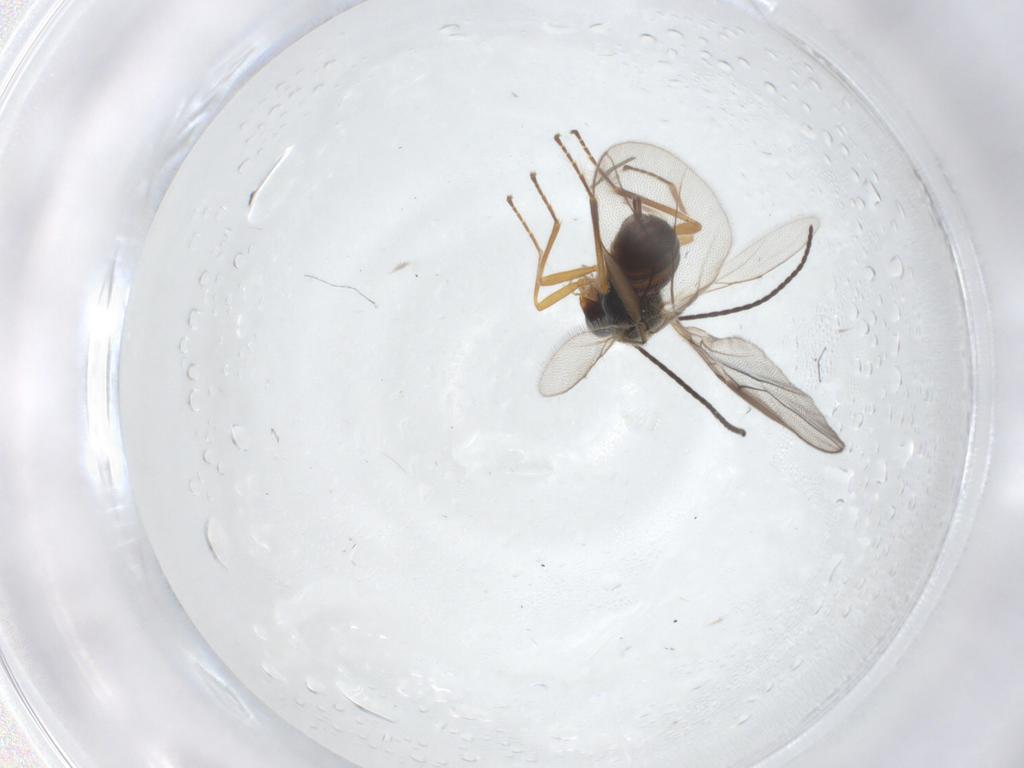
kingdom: Animalia
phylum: Arthropoda
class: Insecta
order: Hymenoptera
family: Braconidae
